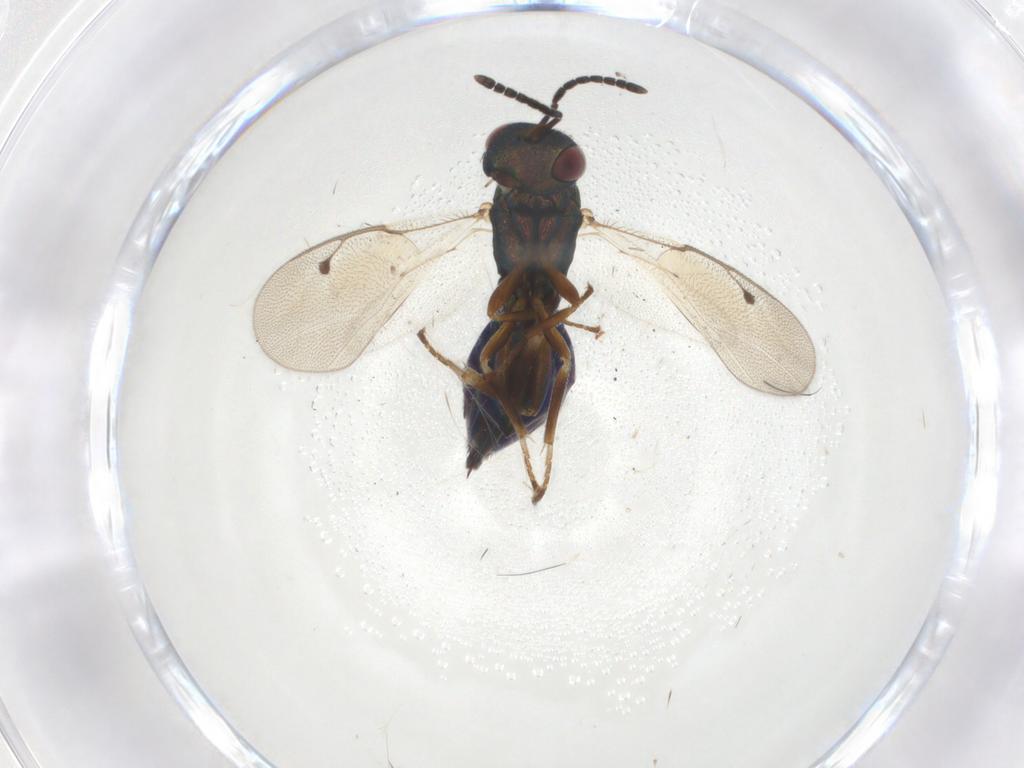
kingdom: Animalia
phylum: Arthropoda
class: Insecta
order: Hymenoptera
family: Pteromalidae
